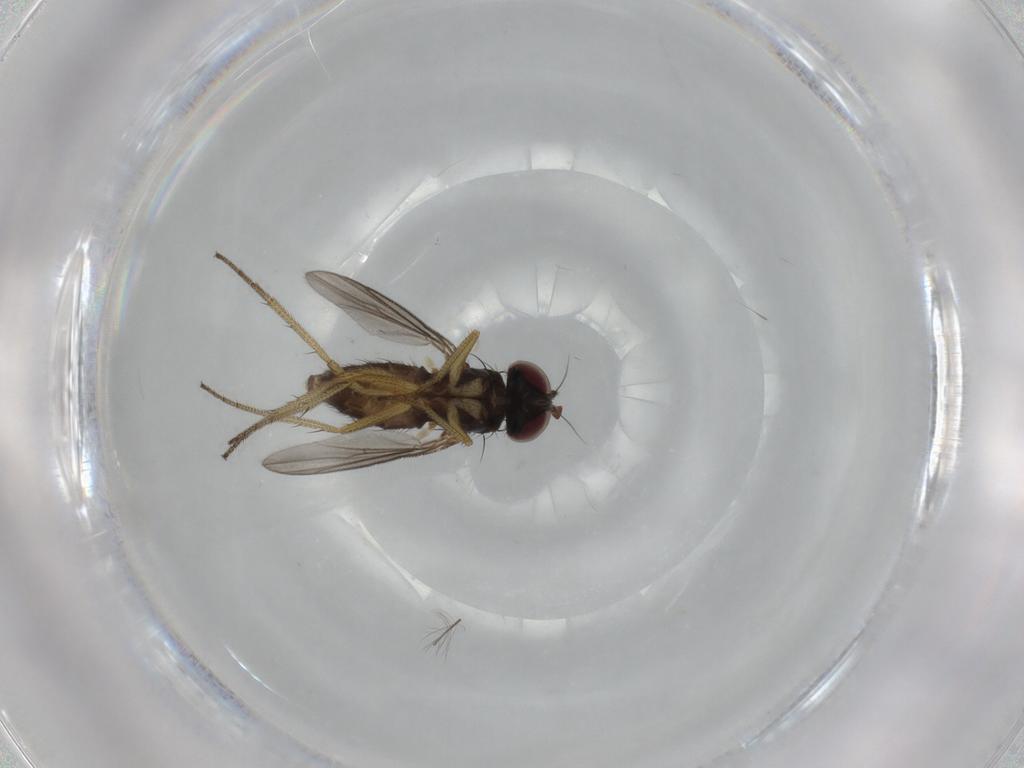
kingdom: Animalia
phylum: Arthropoda
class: Insecta
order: Diptera
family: Dolichopodidae
